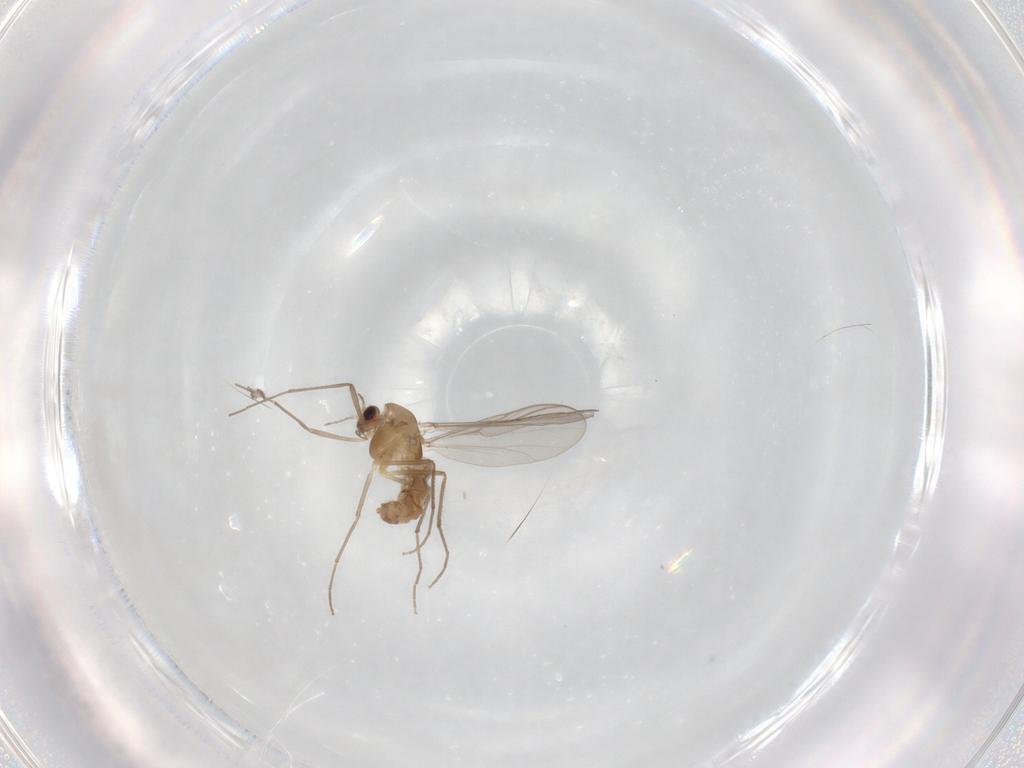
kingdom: Animalia
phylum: Arthropoda
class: Insecta
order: Diptera
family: Chironomidae
